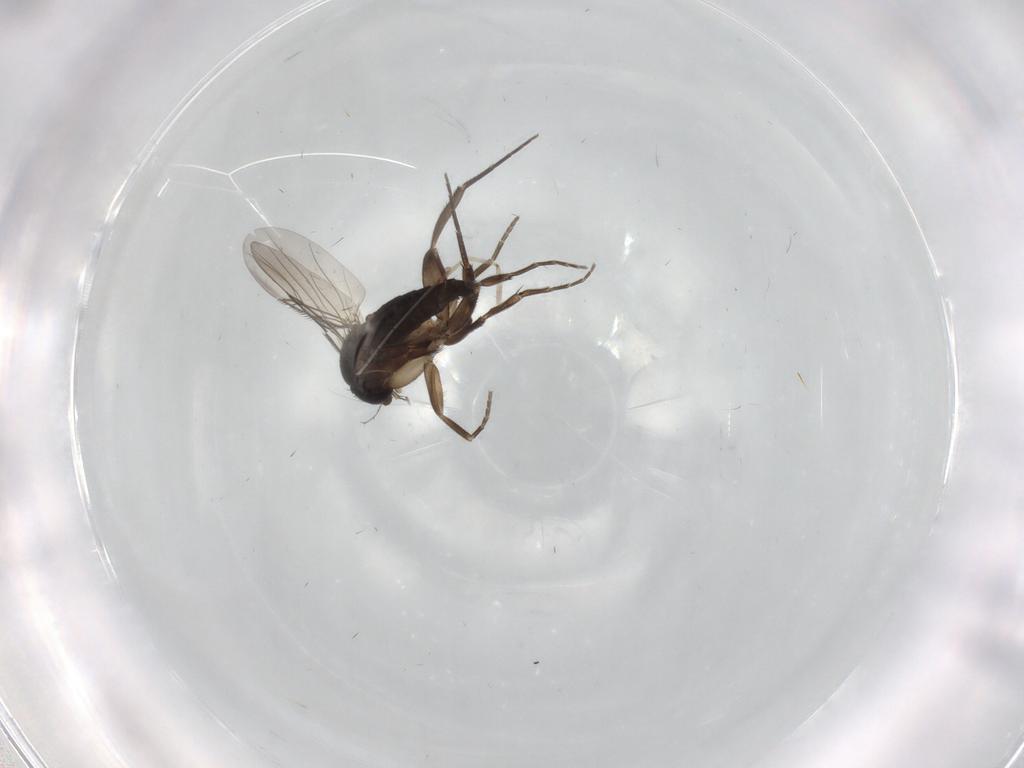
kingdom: Animalia
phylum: Arthropoda
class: Insecta
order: Diptera
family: Phoridae
